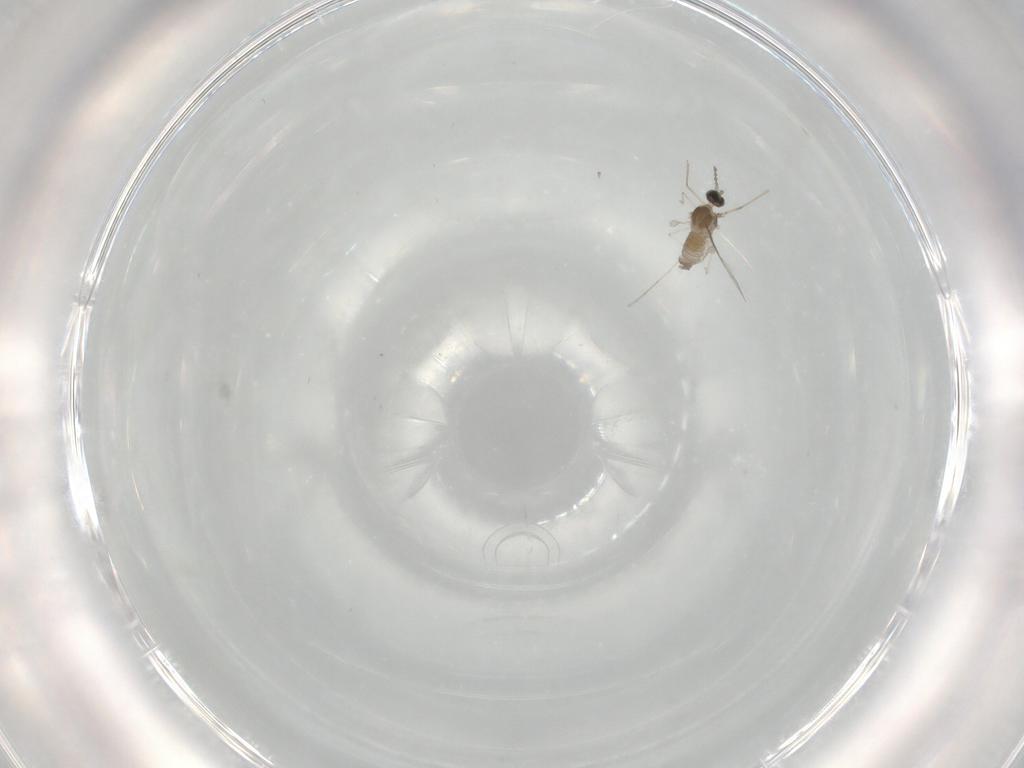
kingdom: Animalia
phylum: Arthropoda
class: Insecta
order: Diptera
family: Cecidomyiidae
